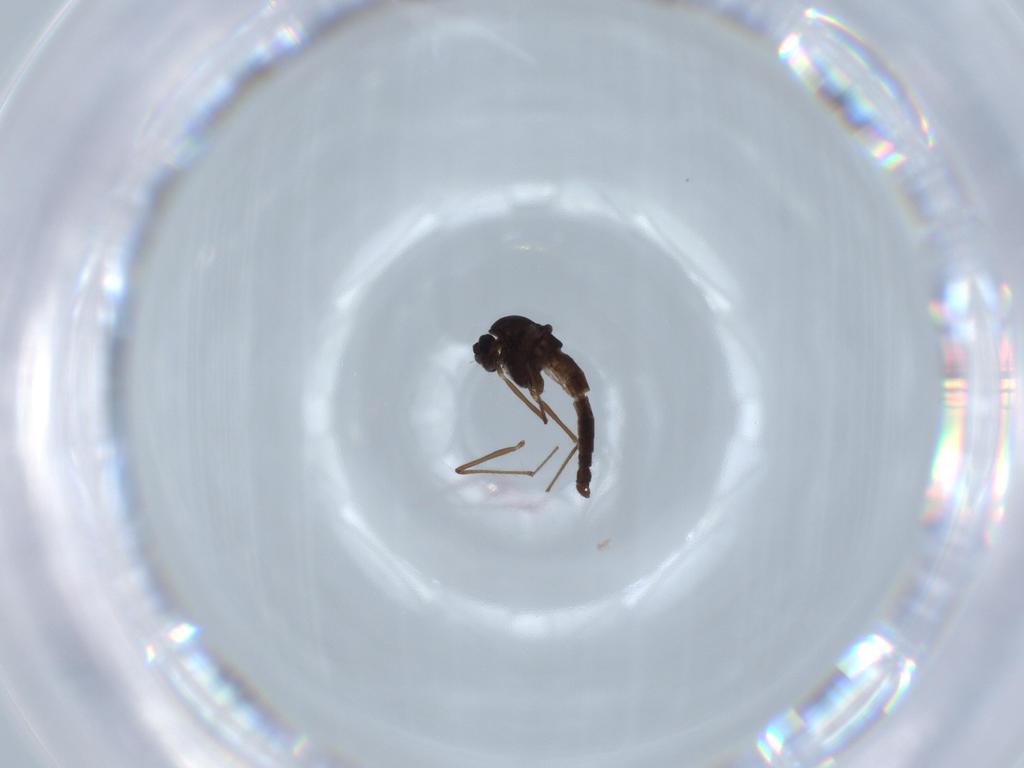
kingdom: Animalia
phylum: Arthropoda
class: Insecta
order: Diptera
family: Chironomidae
